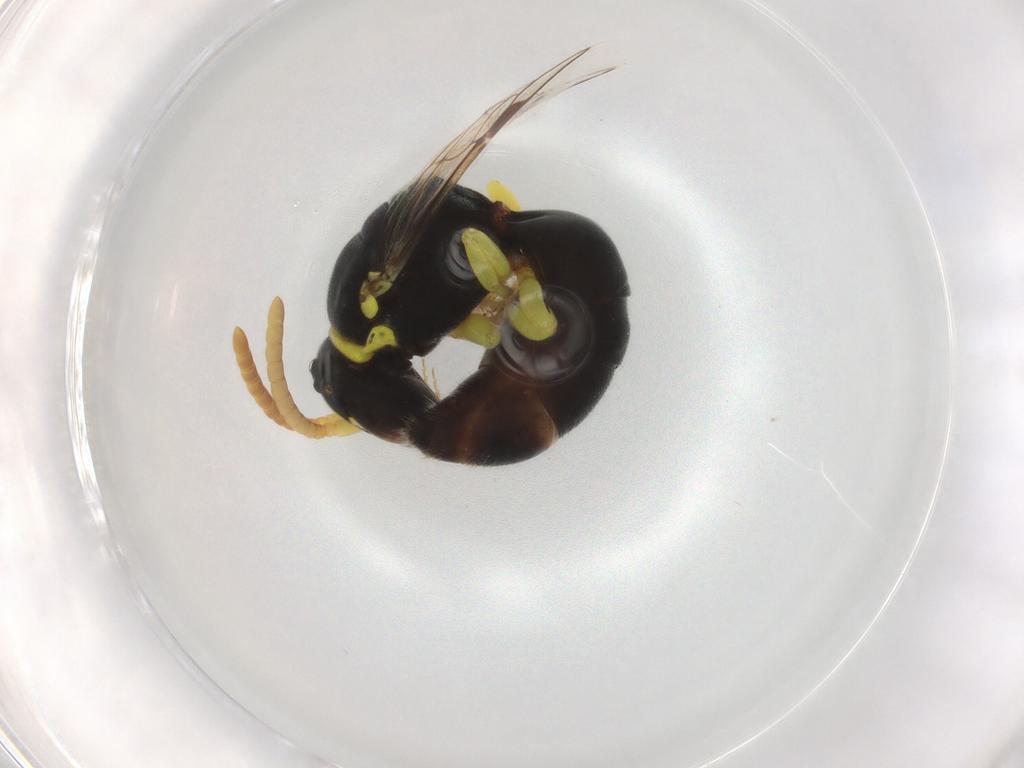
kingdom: Animalia
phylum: Arthropoda
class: Insecta
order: Hymenoptera
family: Colletidae
